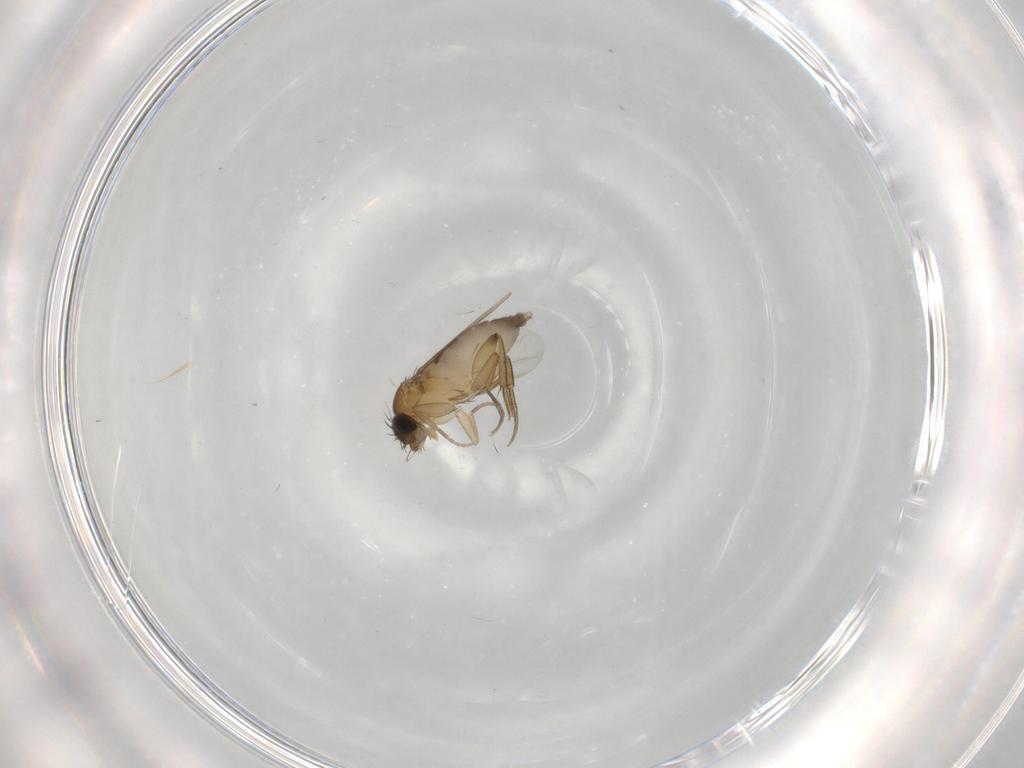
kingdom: Animalia
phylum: Arthropoda
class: Insecta
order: Diptera
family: Phoridae
